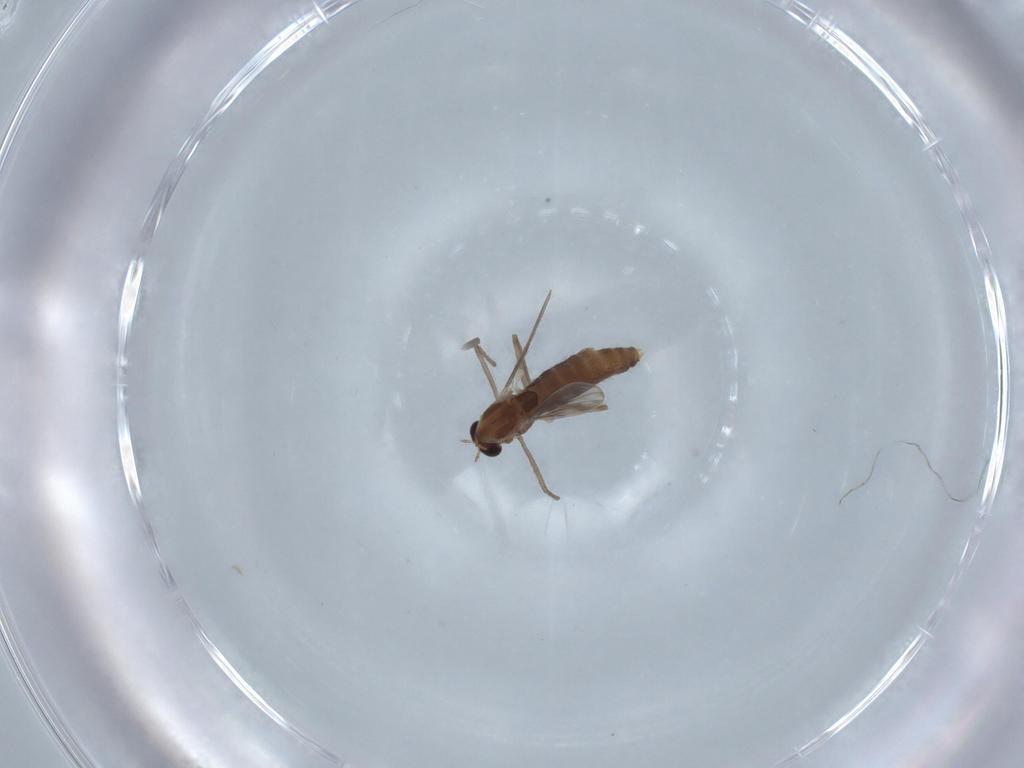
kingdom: Animalia
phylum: Arthropoda
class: Insecta
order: Diptera
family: Chironomidae
